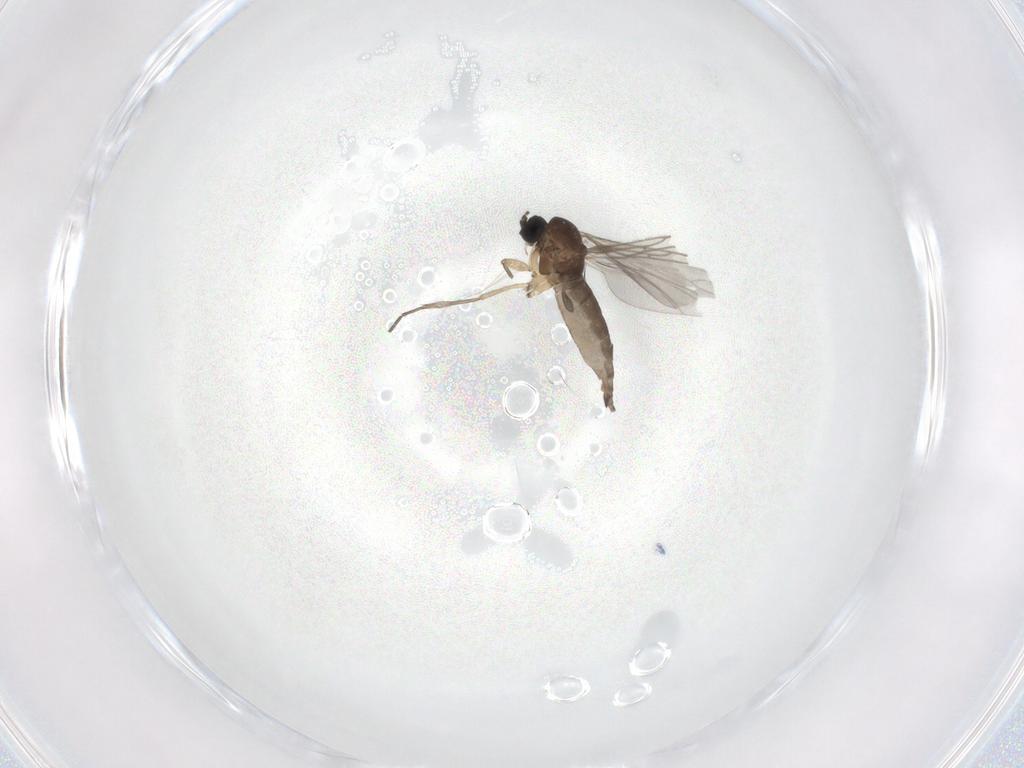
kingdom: Animalia
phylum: Arthropoda
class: Insecta
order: Diptera
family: Sciaridae
